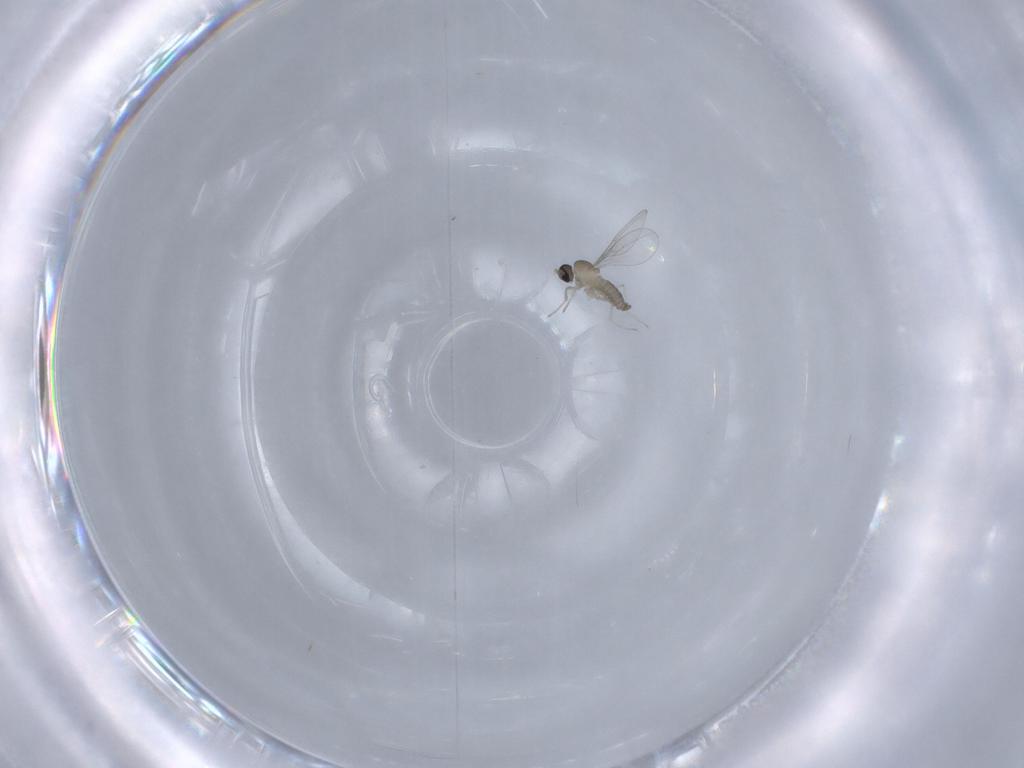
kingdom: Animalia
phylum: Arthropoda
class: Insecta
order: Diptera
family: Cecidomyiidae
